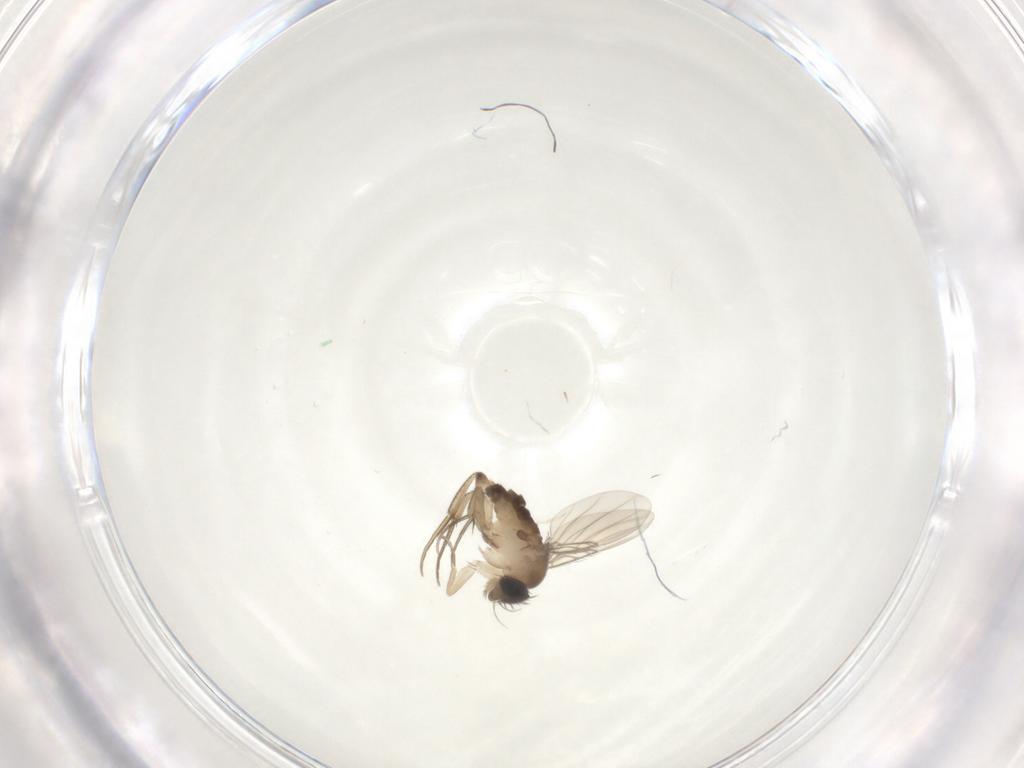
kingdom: Animalia
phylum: Arthropoda
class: Insecta
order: Diptera
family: Phoridae
